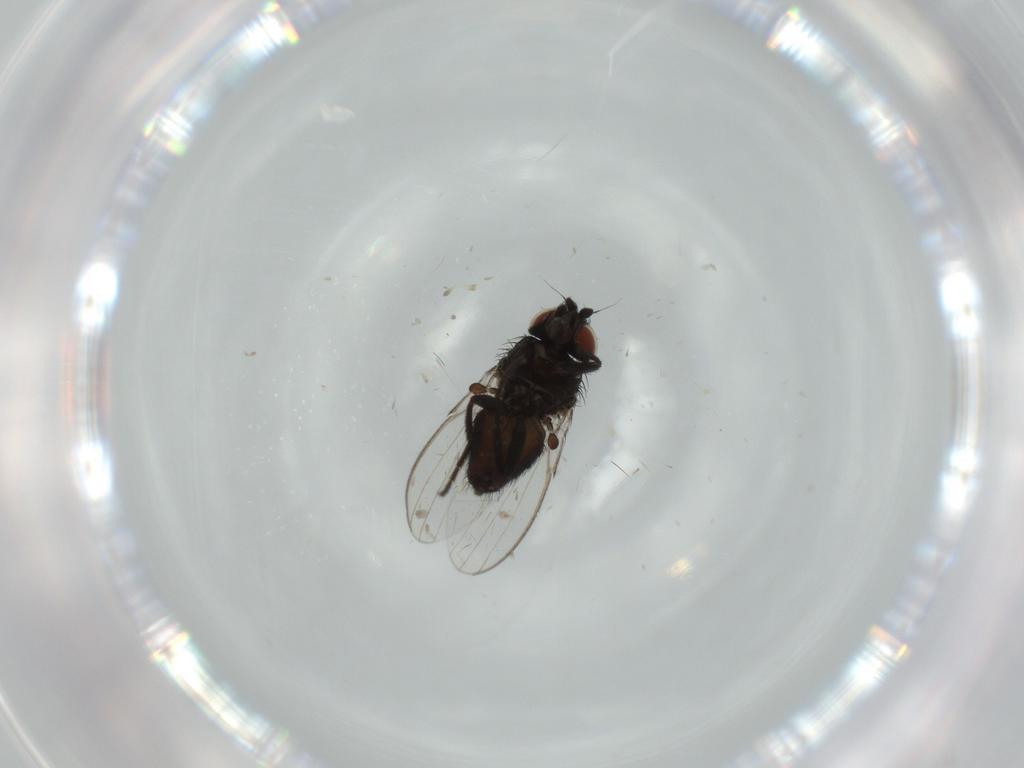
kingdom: Animalia
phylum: Arthropoda
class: Insecta
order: Diptera
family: Milichiidae
